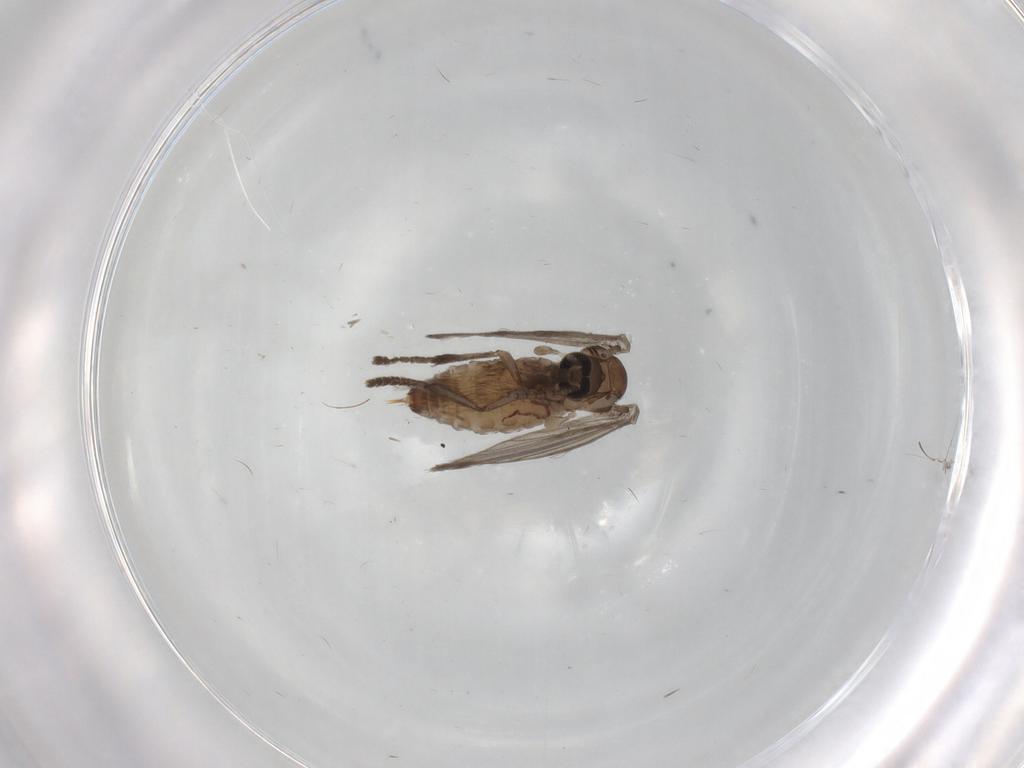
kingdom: Animalia
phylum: Arthropoda
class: Insecta
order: Diptera
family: Psychodidae
